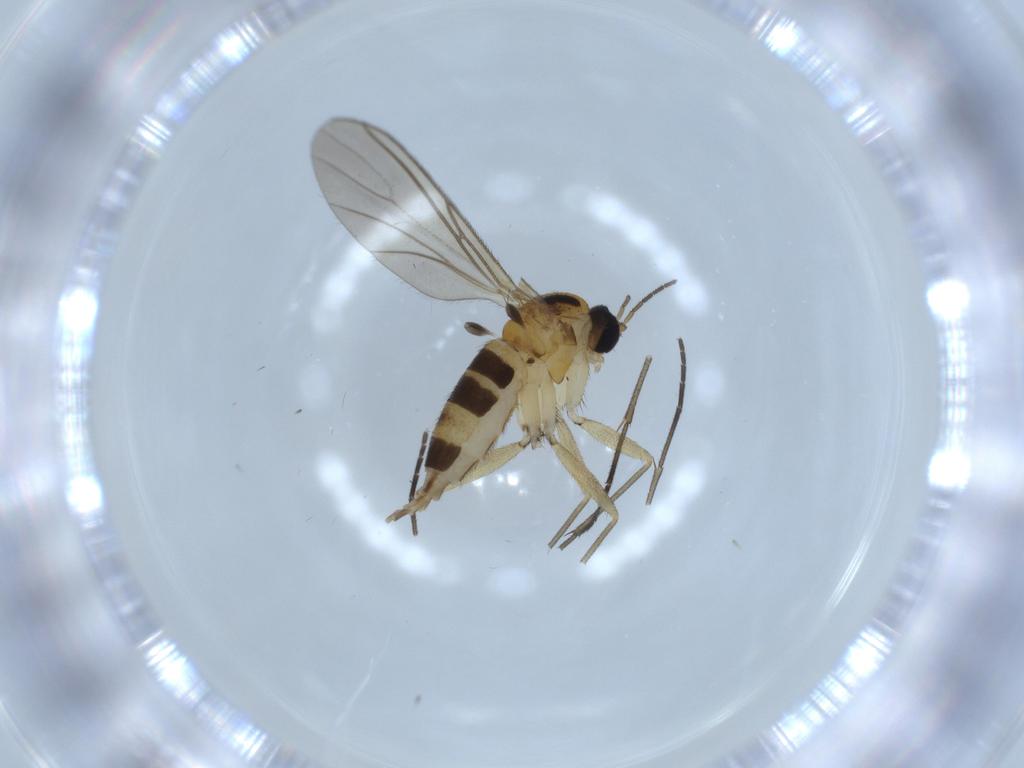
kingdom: Animalia
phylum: Arthropoda
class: Insecta
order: Diptera
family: Sciaridae
